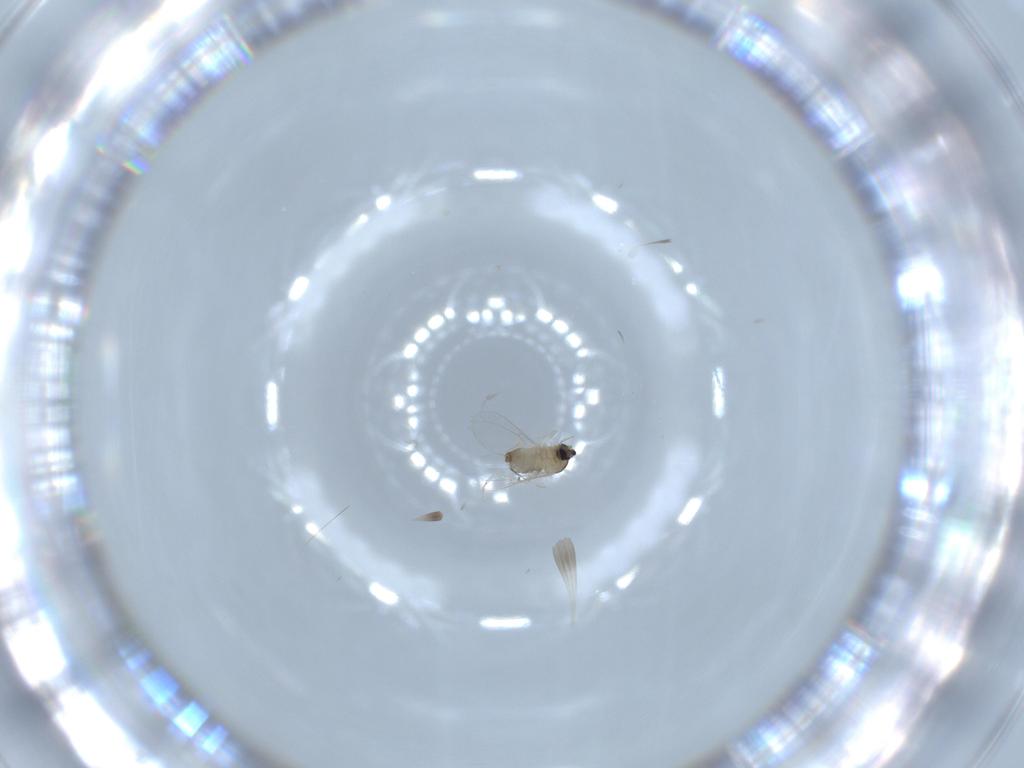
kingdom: Animalia
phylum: Arthropoda
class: Insecta
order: Diptera
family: Cecidomyiidae
